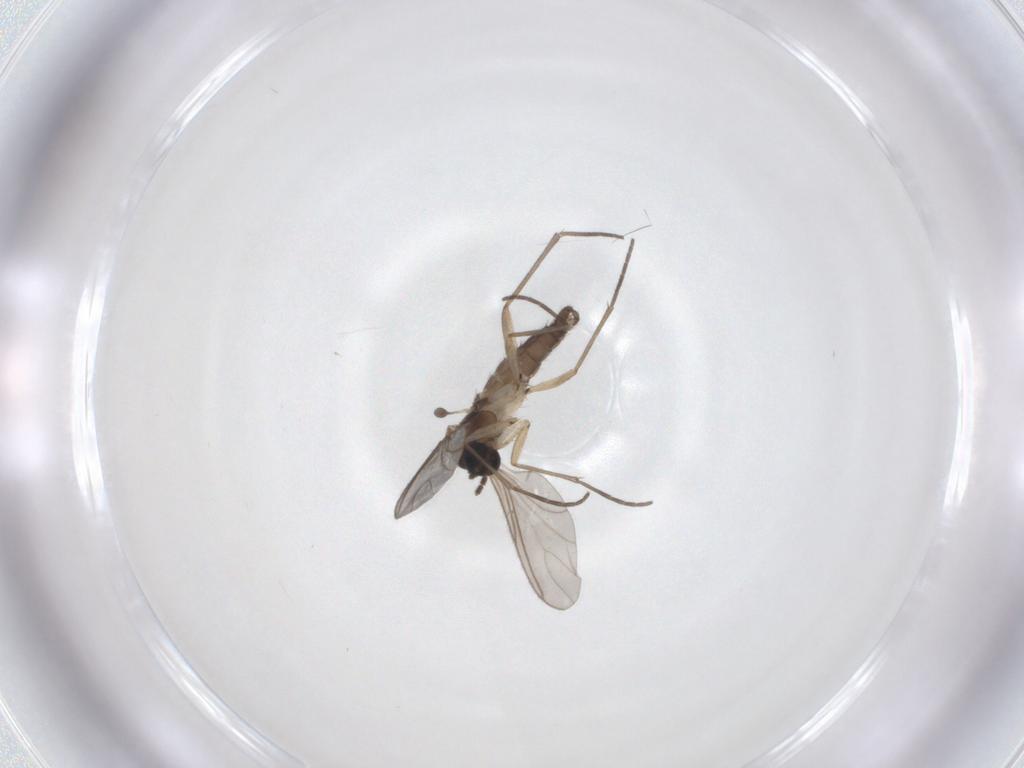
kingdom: Animalia
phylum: Arthropoda
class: Insecta
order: Diptera
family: Sciaridae
